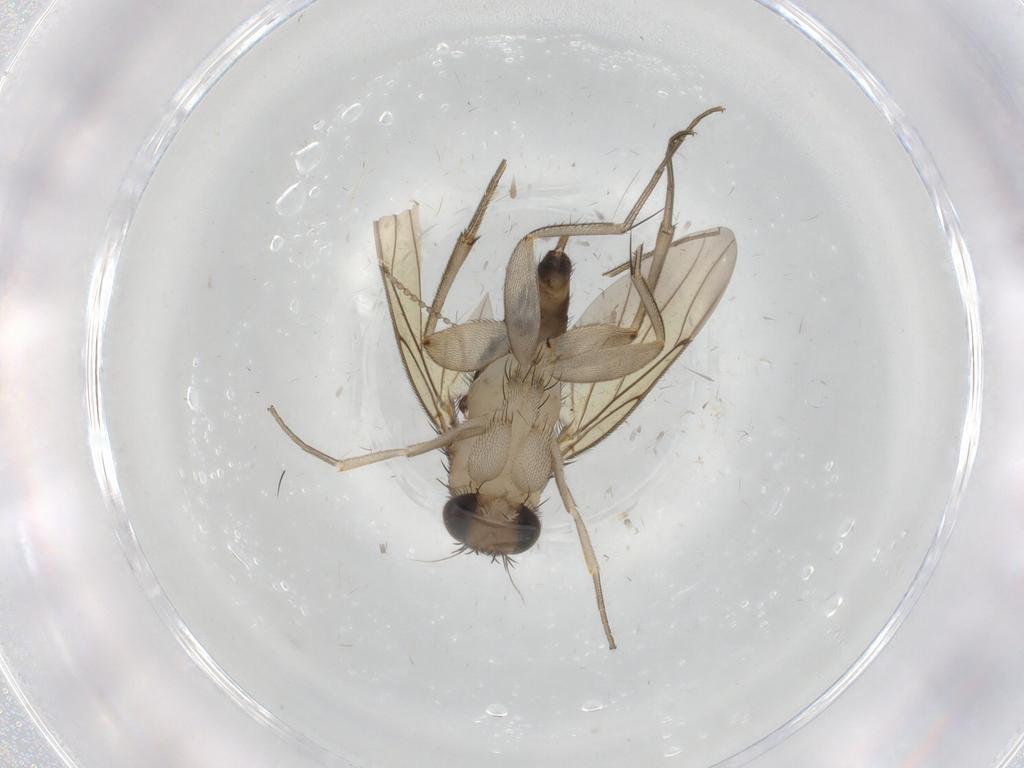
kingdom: Animalia
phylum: Arthropoda
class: Insecta
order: Diptera
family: Phoridae
